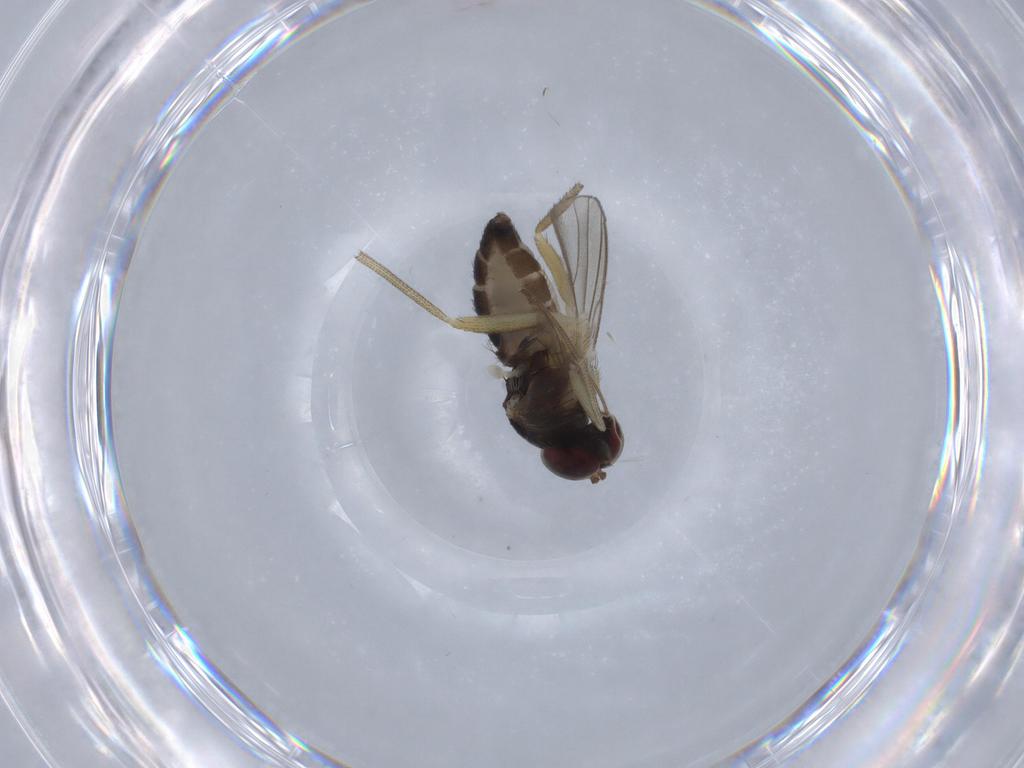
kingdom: Animalia
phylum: Arthropoda
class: Insecta
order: Diptera
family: Dolichopodidae
